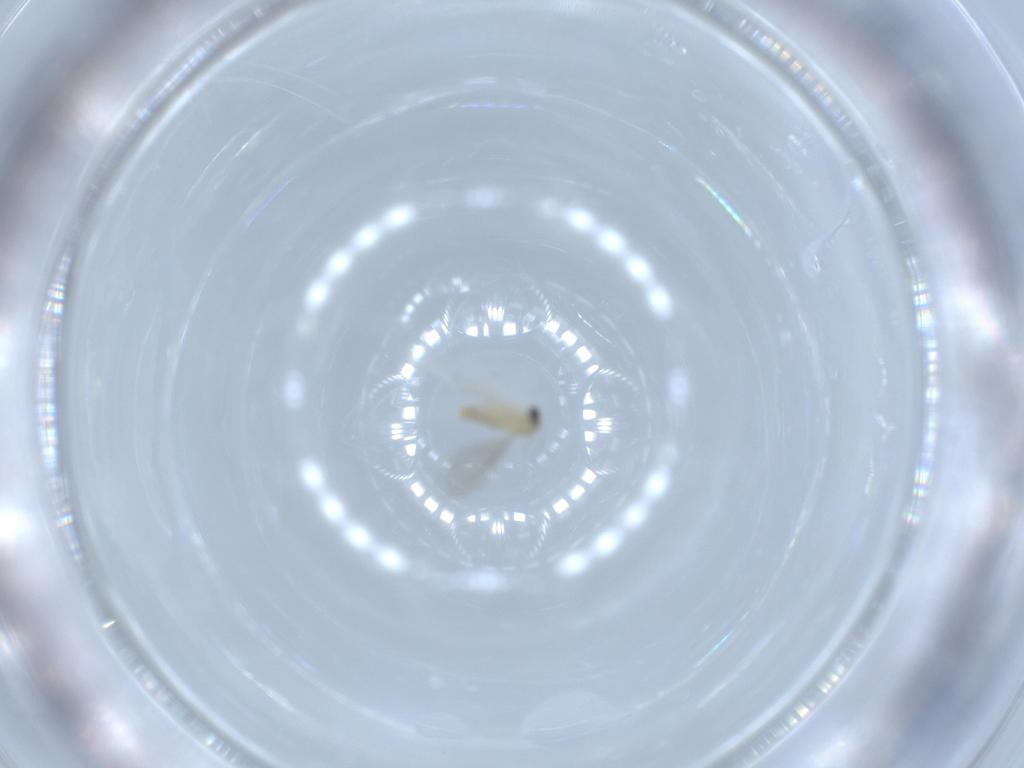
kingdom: Animalia
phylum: Arthropoda
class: Insecta
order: Diptera
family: Cecidomyiidae
